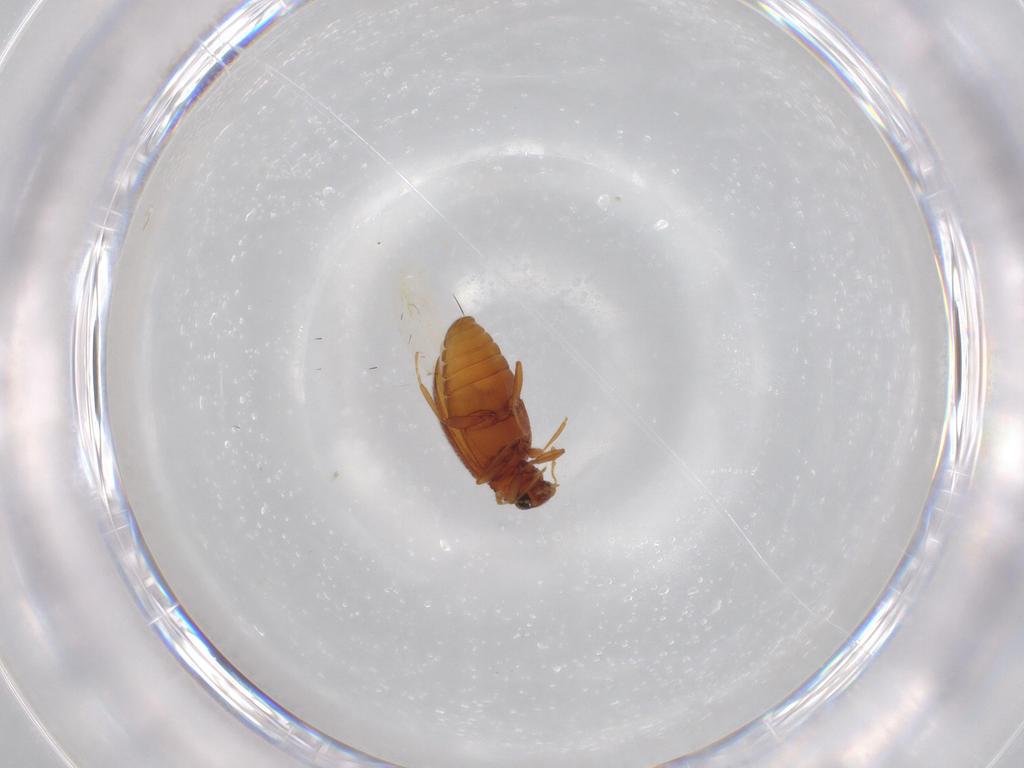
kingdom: Animalia
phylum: Arthropoda
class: Insecta
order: Coleoptera
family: Latridiidae
